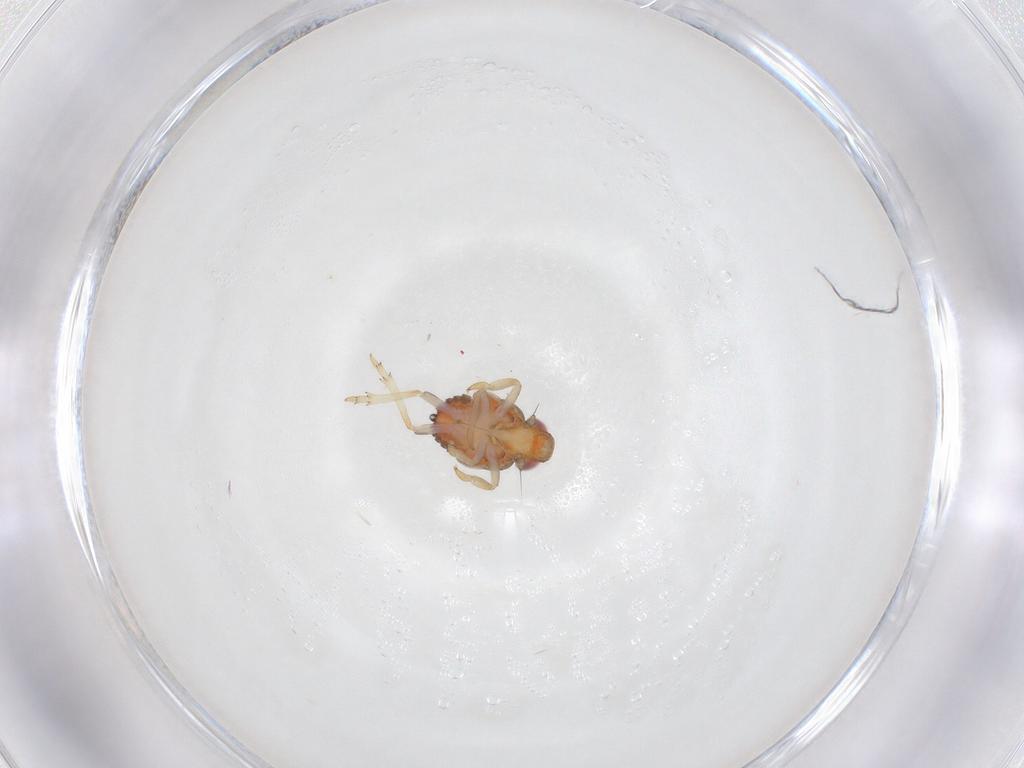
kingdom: Animalia
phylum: Arthropoda
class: Insecta
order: Hemiptera
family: Issidae
